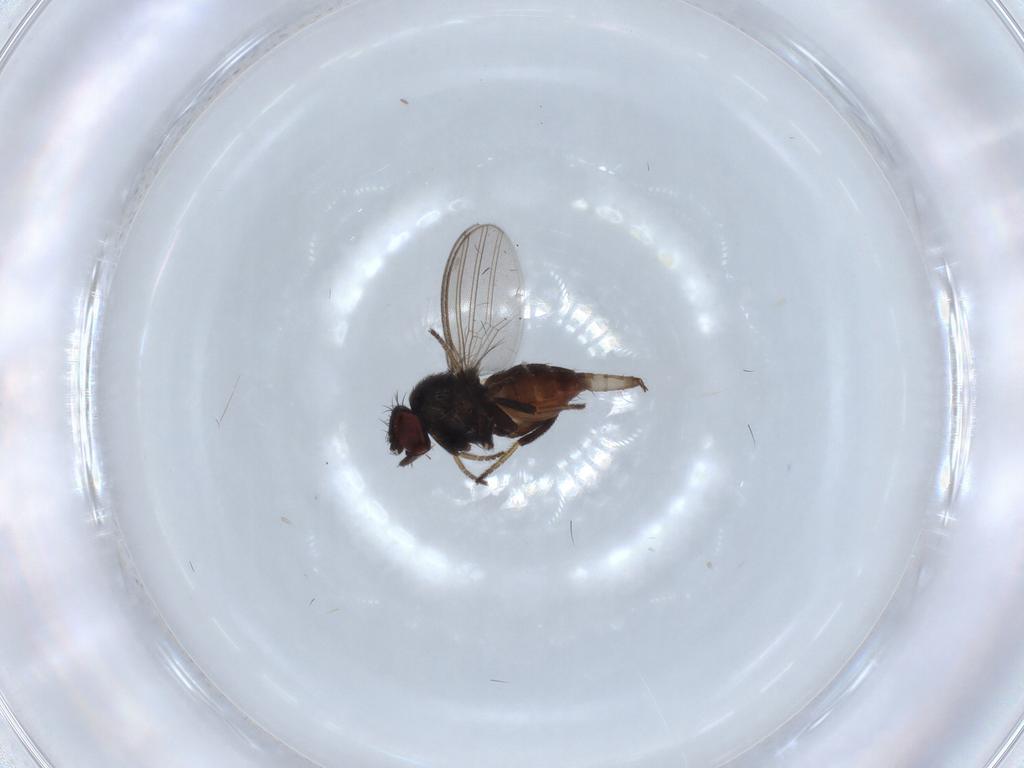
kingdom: Animalia
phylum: Arthropoda
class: Insecta
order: Diptera
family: Milichiidae
